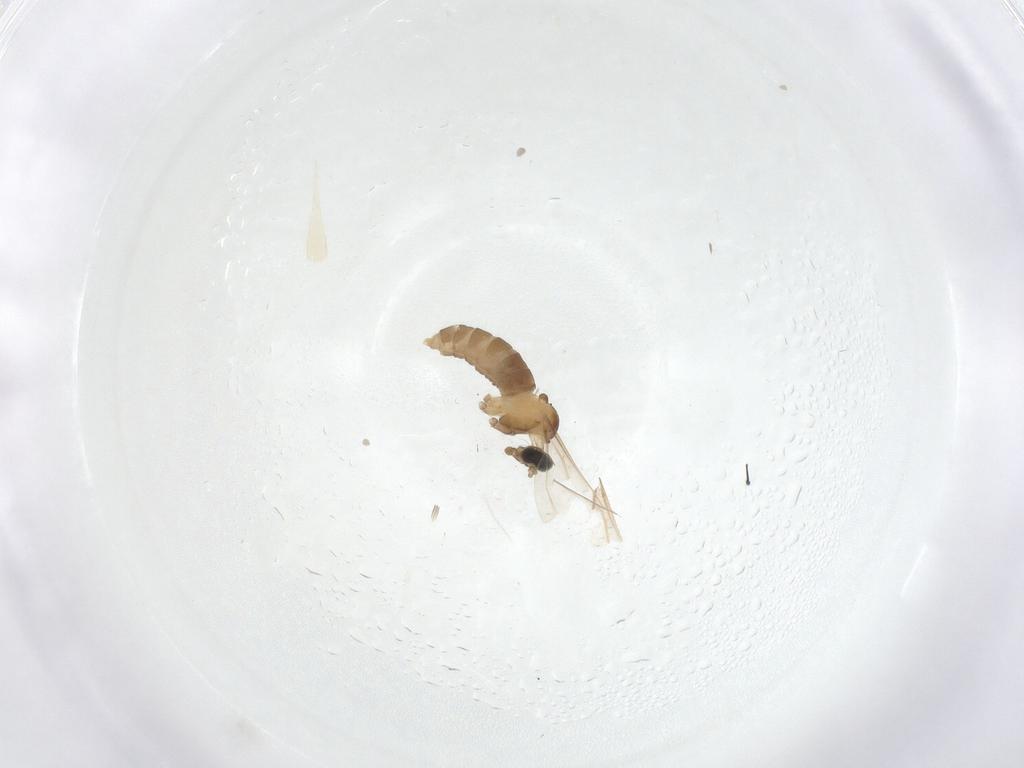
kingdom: Animalia
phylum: Arthropoda
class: Insecta
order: Diptera
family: Cecidomyiidae
